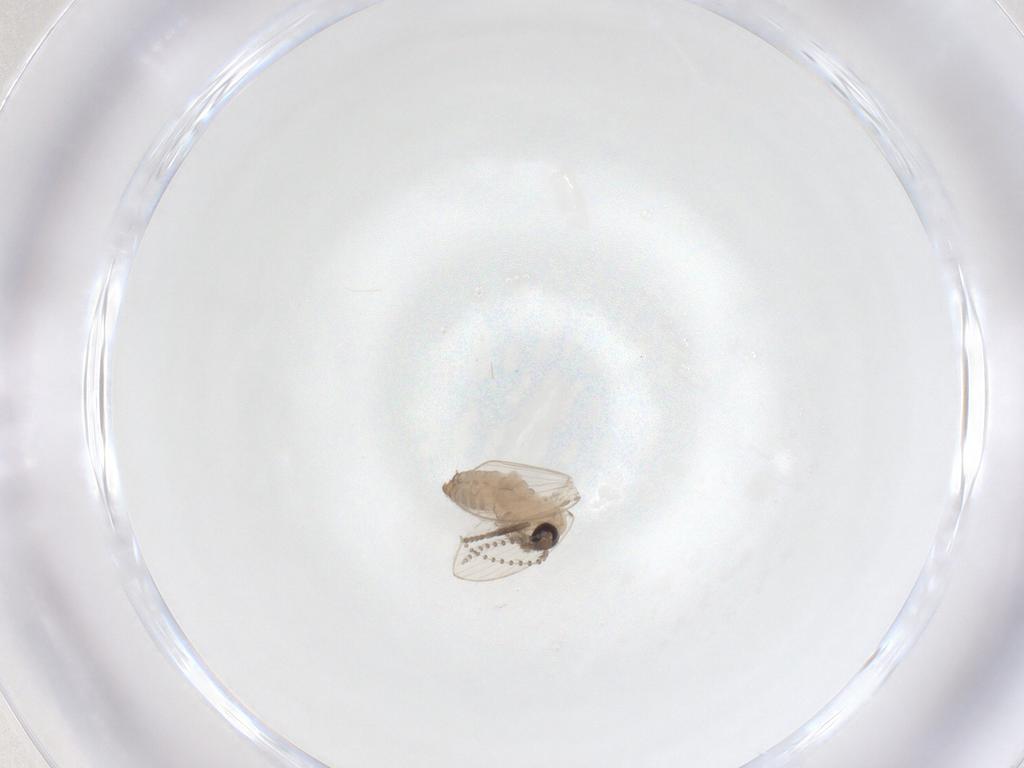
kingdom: Animalia
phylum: Arthropoda
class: Insecta
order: Diptera
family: Psychodidae
